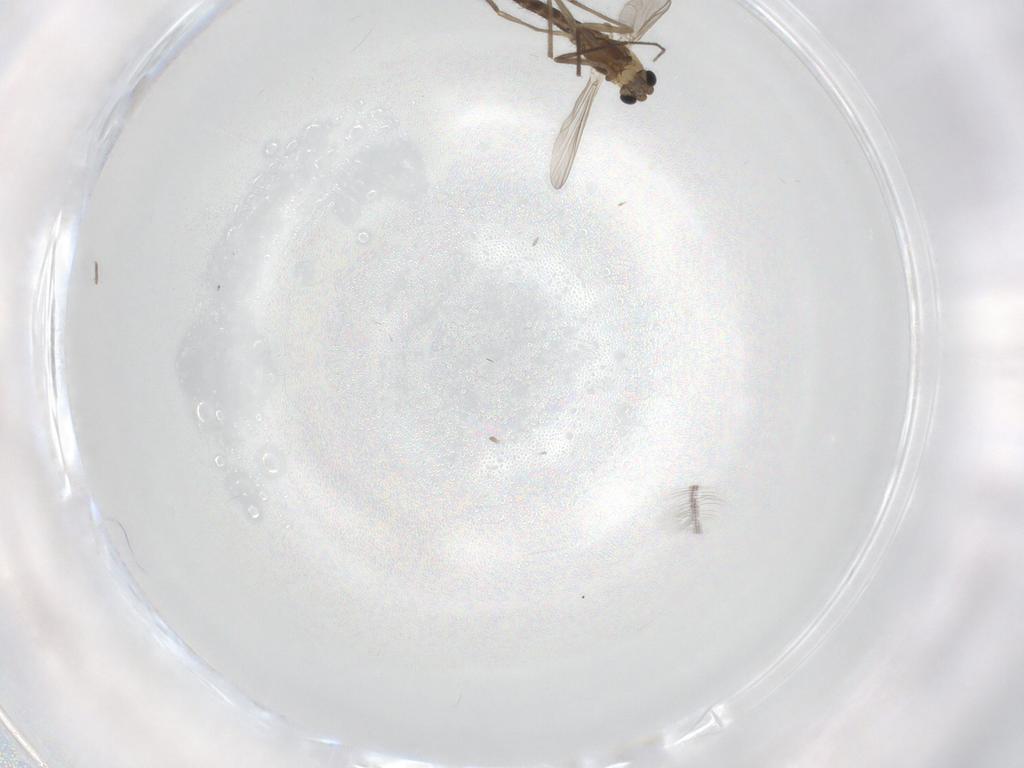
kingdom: Animalia
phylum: Arthropoda
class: Insecta
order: Diptera
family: Chironomidae
